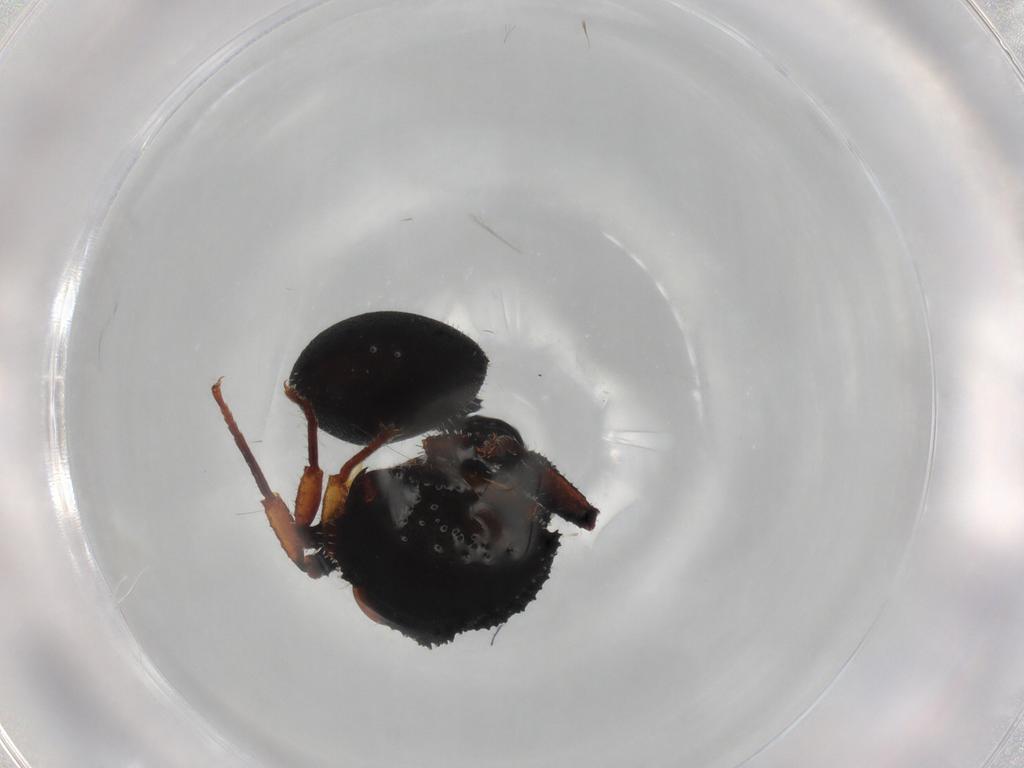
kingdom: Animalia
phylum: Arthropoda
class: Insecta
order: Hymenoptera
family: Formicidae
